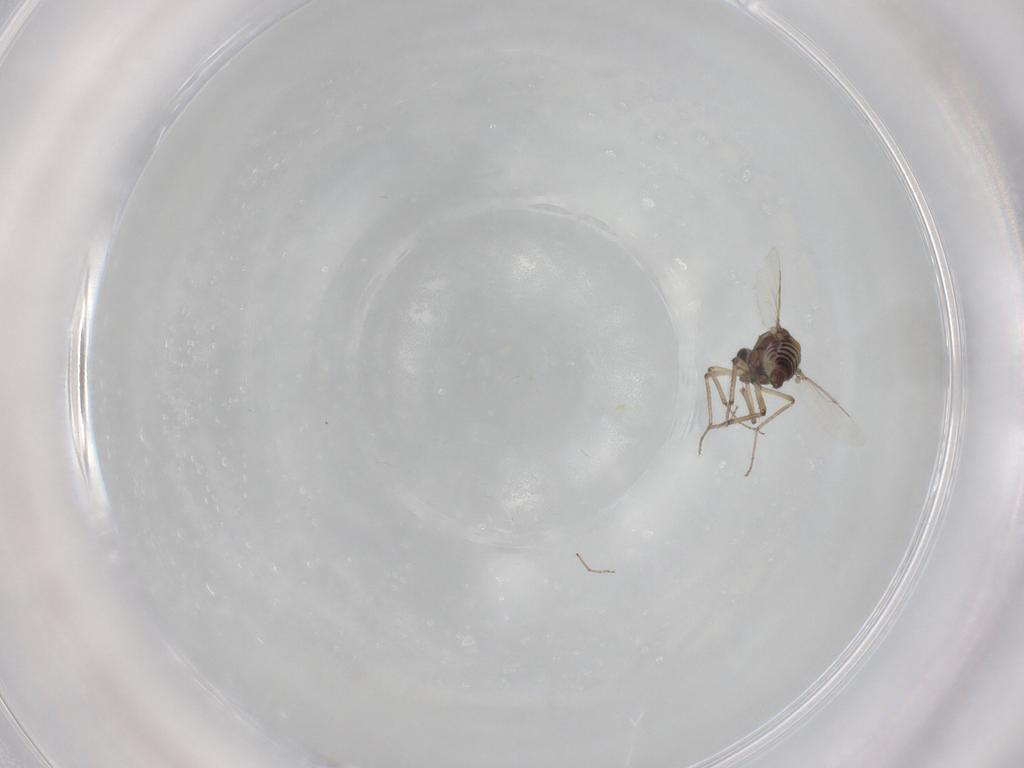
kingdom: Animalia
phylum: Arthropoda
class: Insecta
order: Diptera
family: Ceratopogonidae
